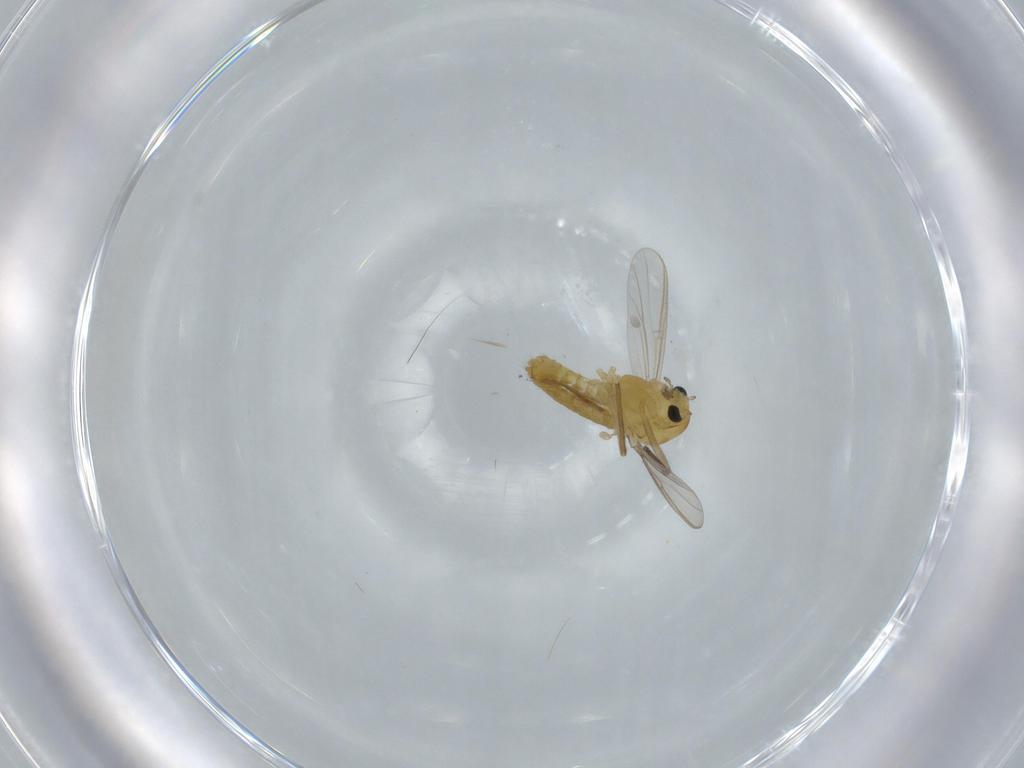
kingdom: Animalia
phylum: Arthropoda
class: Insecta
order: Diptera
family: Chironomidae
